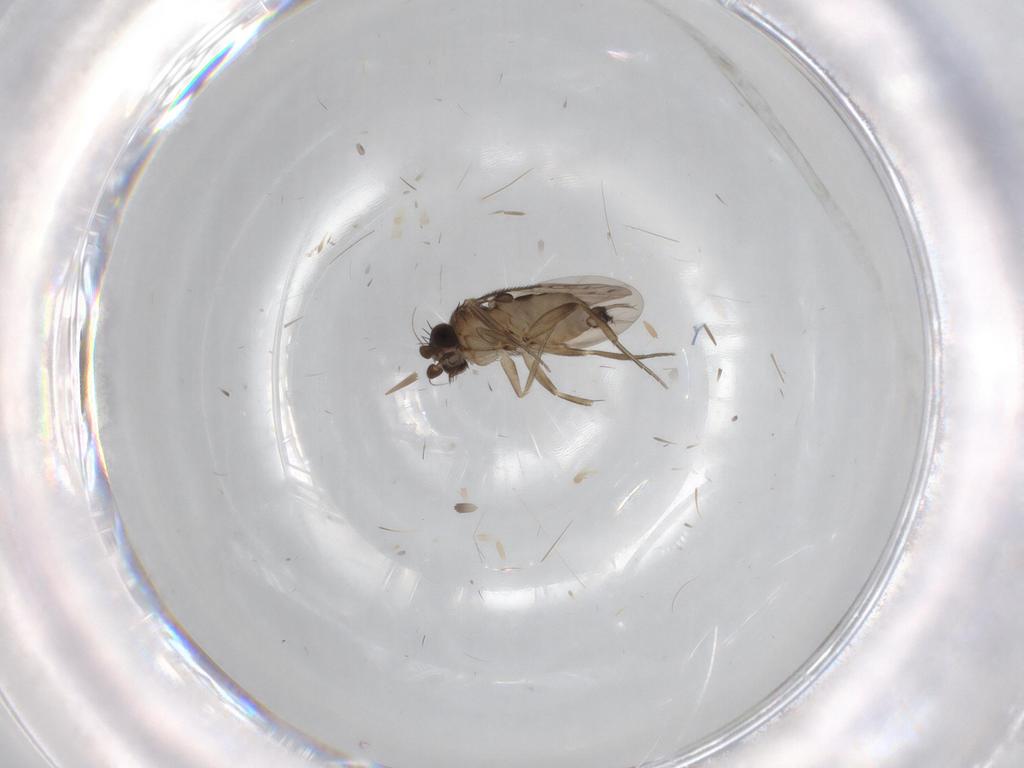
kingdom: Animalia
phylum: Arthropoda
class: Insecta
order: Diptera
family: Phoridae
